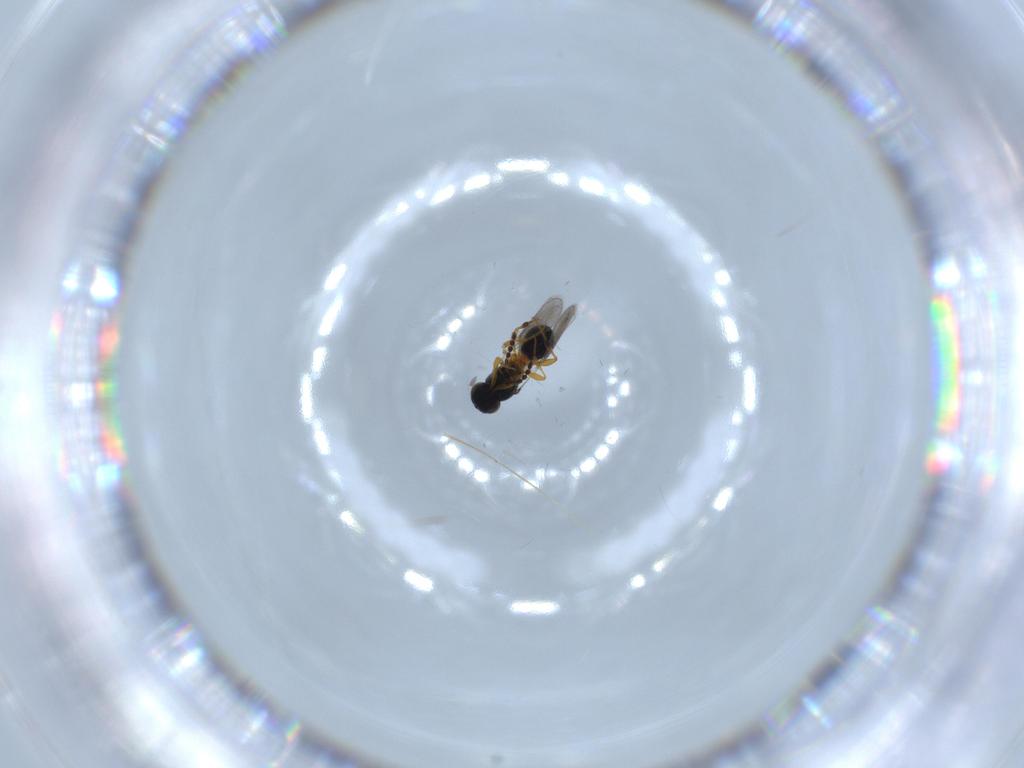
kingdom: Animalia
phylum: Arthropoda
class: Insecta
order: Hymenoptera
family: Platygastridae
